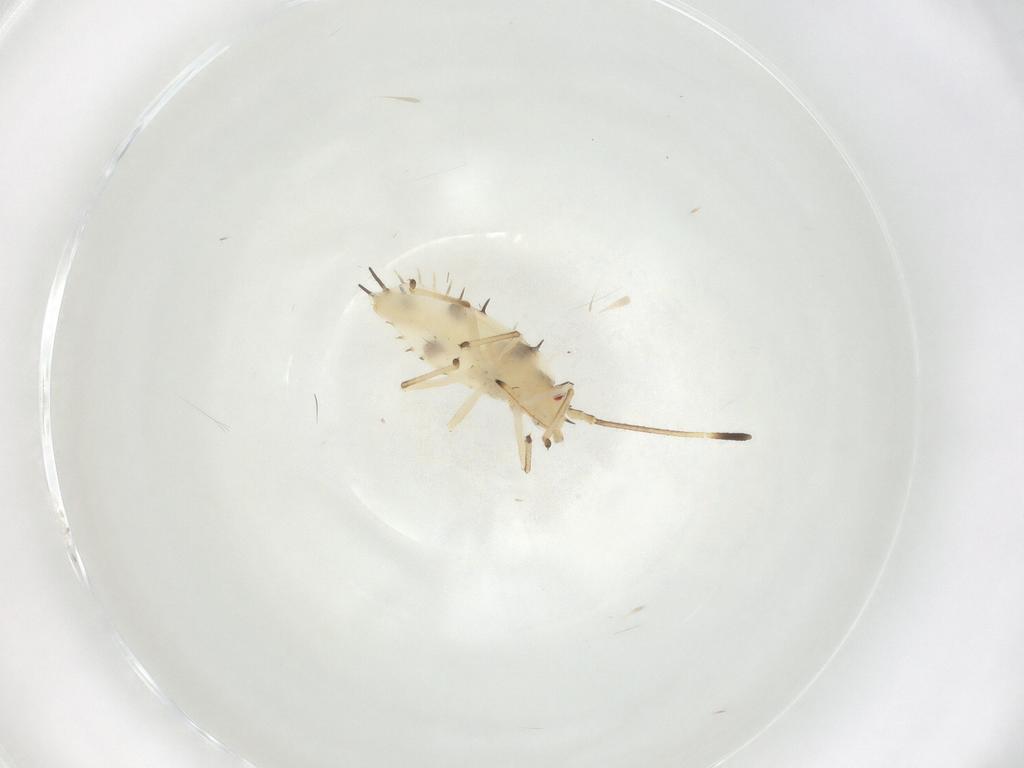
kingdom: Animalia
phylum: Arthropoda
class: Insecta
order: Hemiptera
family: Tingidae
